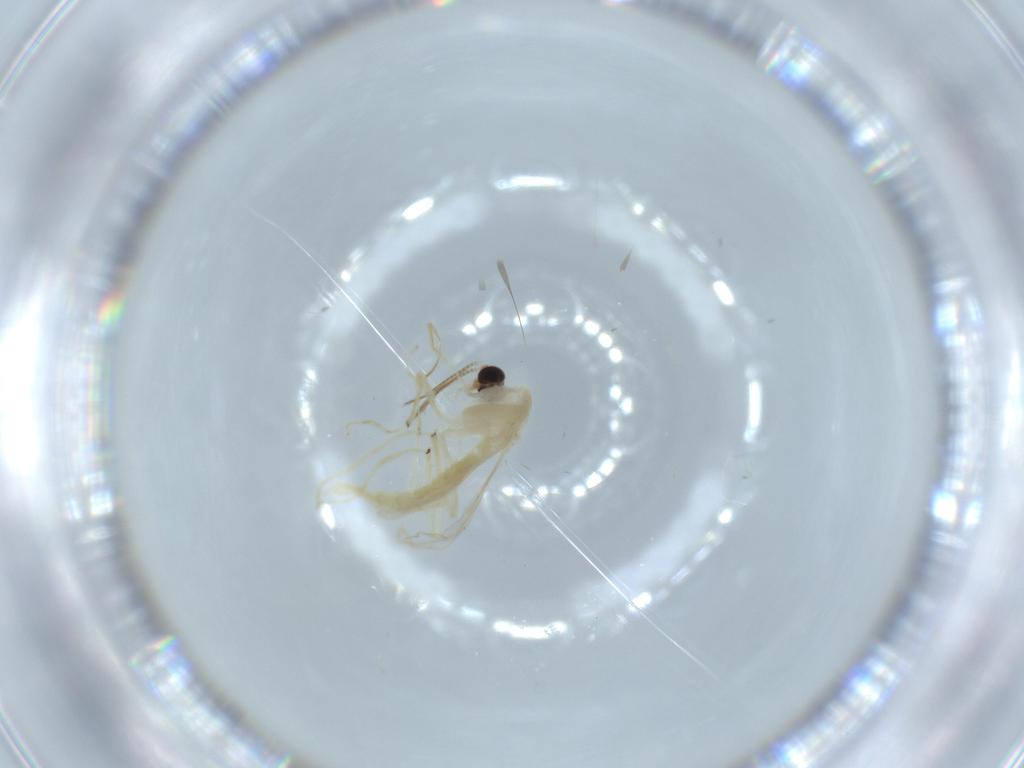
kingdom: Animalia
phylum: Arthropoda
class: Insecta
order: Diptera
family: Chironomidae
